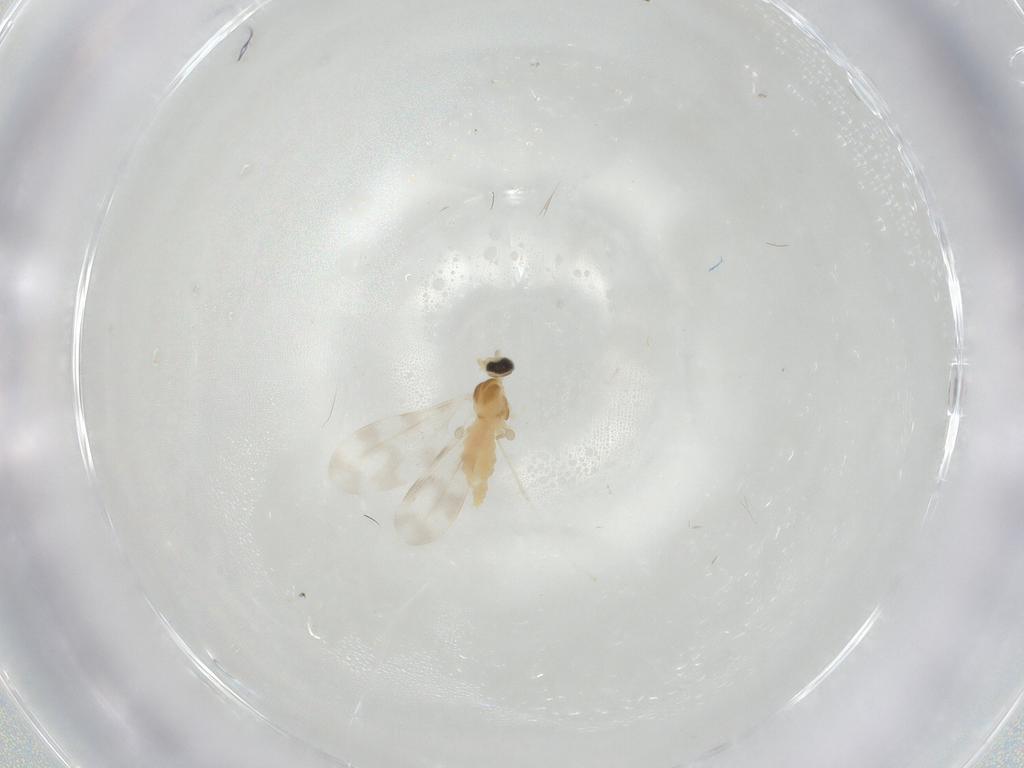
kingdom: Animalia
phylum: Arthropoda
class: Insecta
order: Diptera
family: Cecidomyiidae
